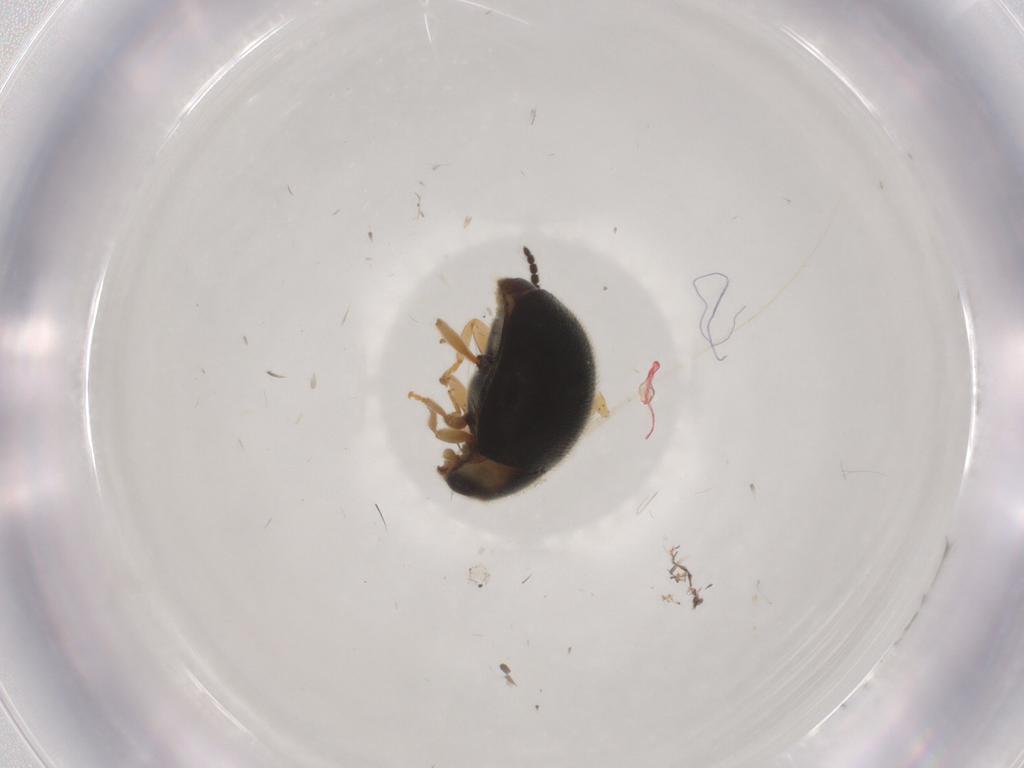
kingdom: Animalia
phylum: Arthropoda
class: Insecta
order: Coleoptera
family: Coccinellidae
